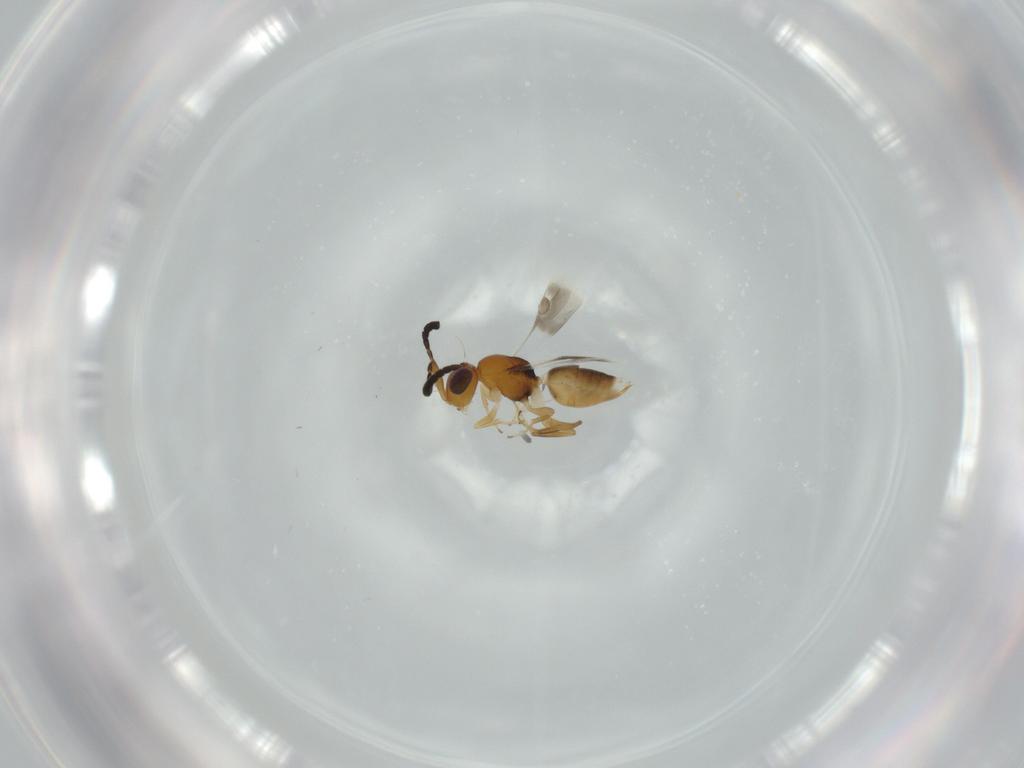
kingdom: Animalia
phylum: Arthropoda
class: Insecta
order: Hymenoptera
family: Megaspilidae
